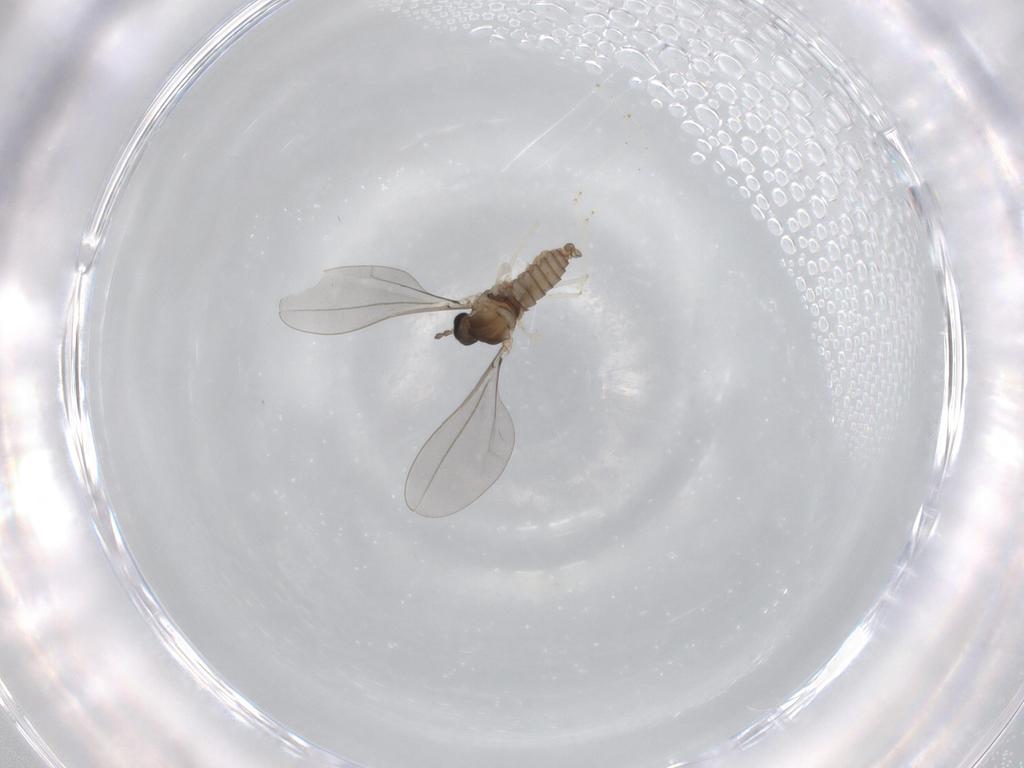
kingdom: Animalia
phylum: Arthropoda
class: Insecta
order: Diptera
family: Cecidomyiidae
